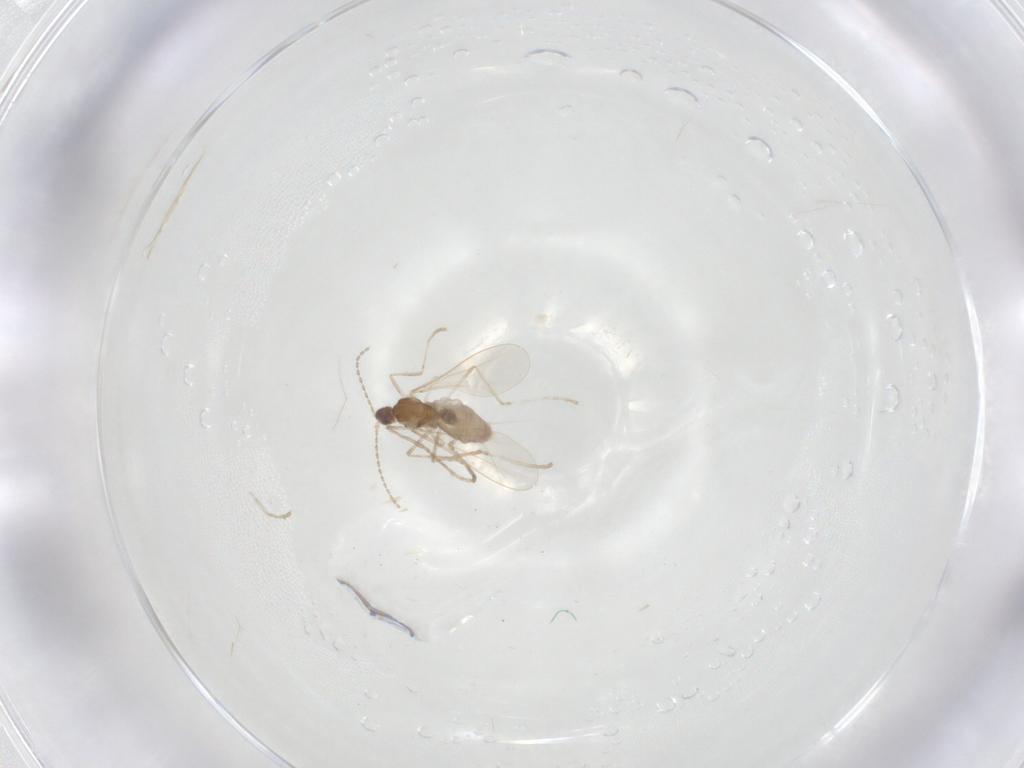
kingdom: Animalia
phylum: Arthropoda
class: Insecta
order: Diptera
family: Cecidomyiidae
